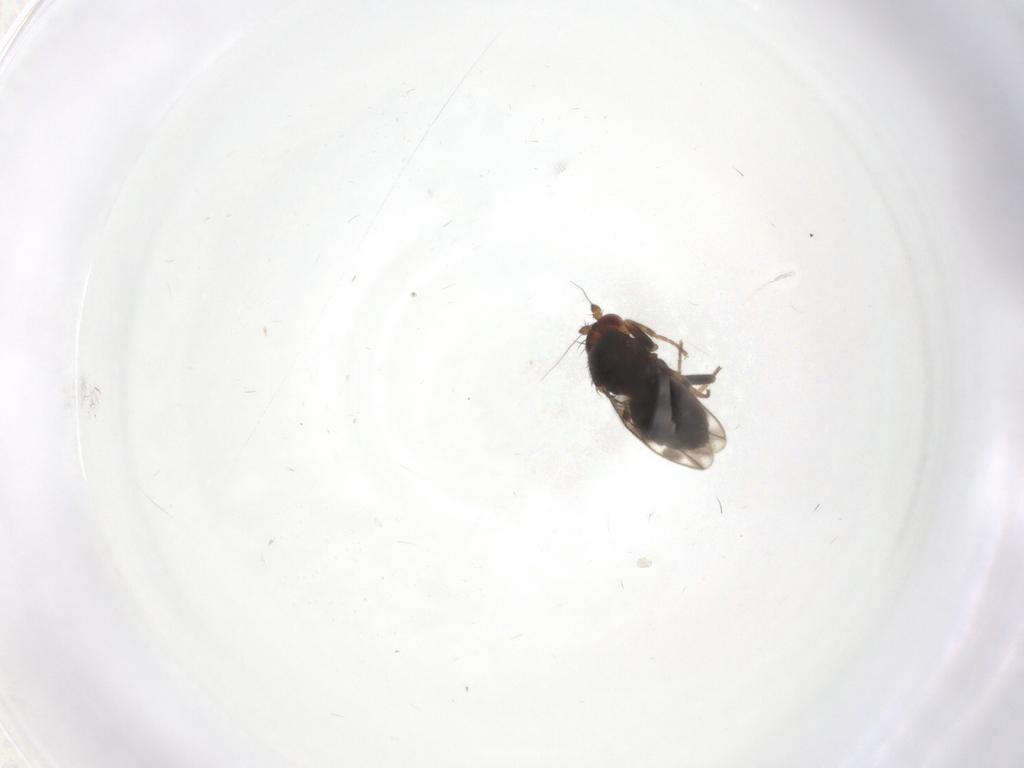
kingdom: Animalia
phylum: Arthropoda
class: Insecta
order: Diptera
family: Sphaeroceridae
